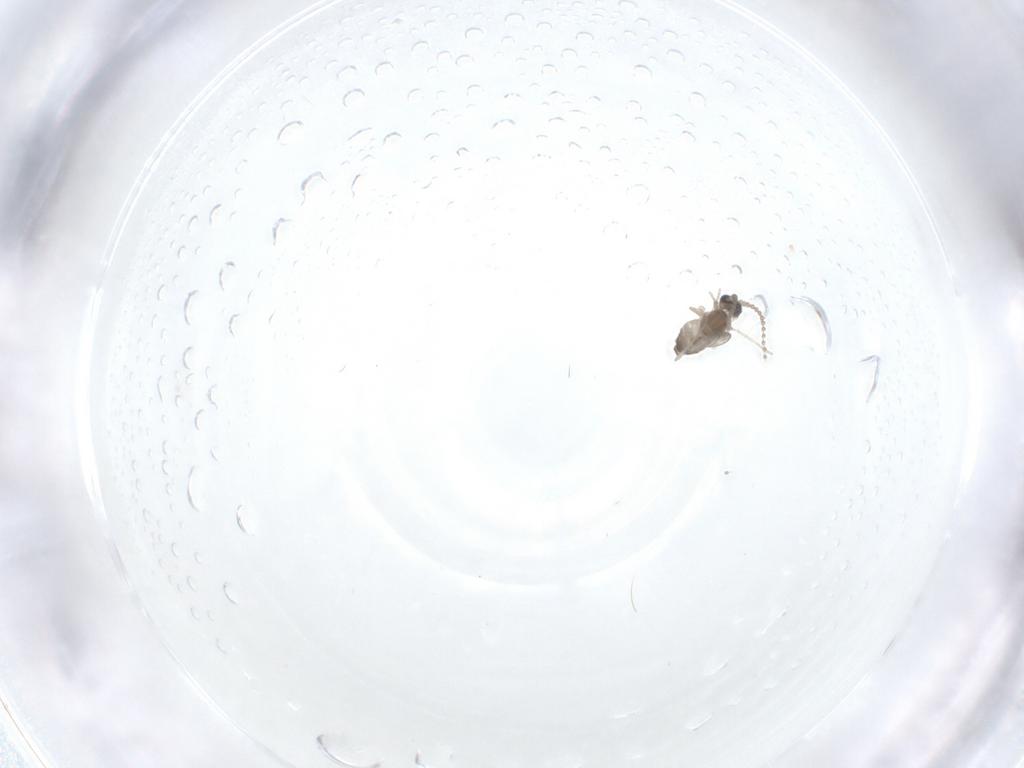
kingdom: Animalia
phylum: Arthropoda
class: Insecta
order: Diptera
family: Cecidomyiidae
